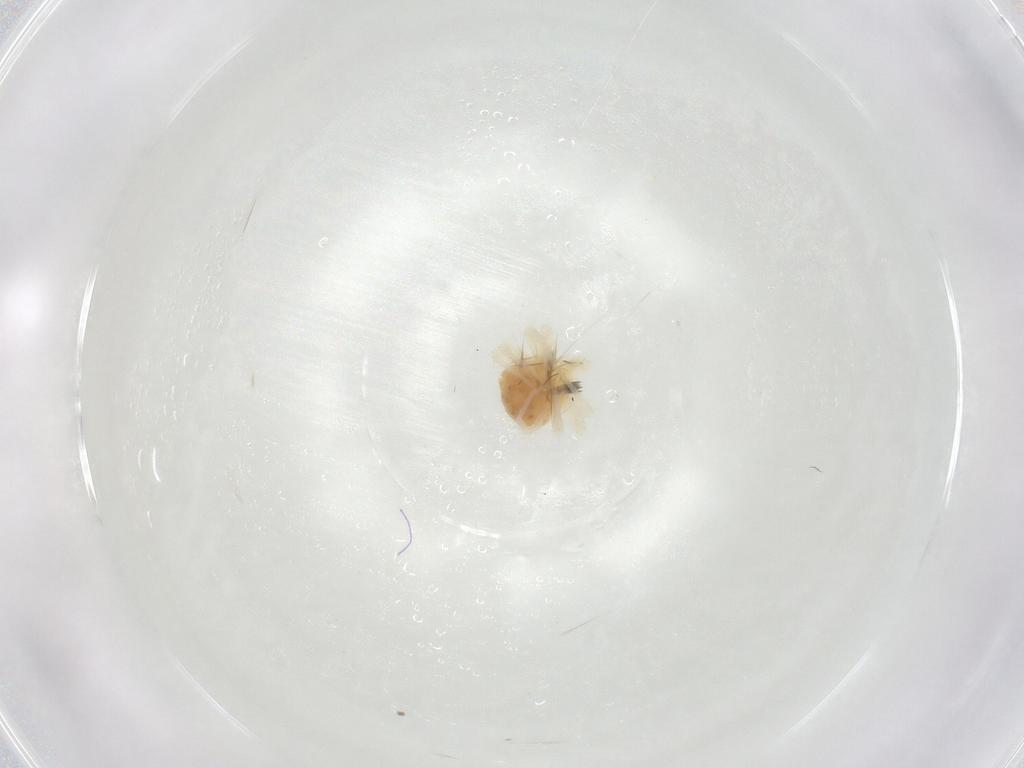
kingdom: Animalia
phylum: Arthropoda
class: Arachnida
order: Trombidiformes
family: Anystidae
